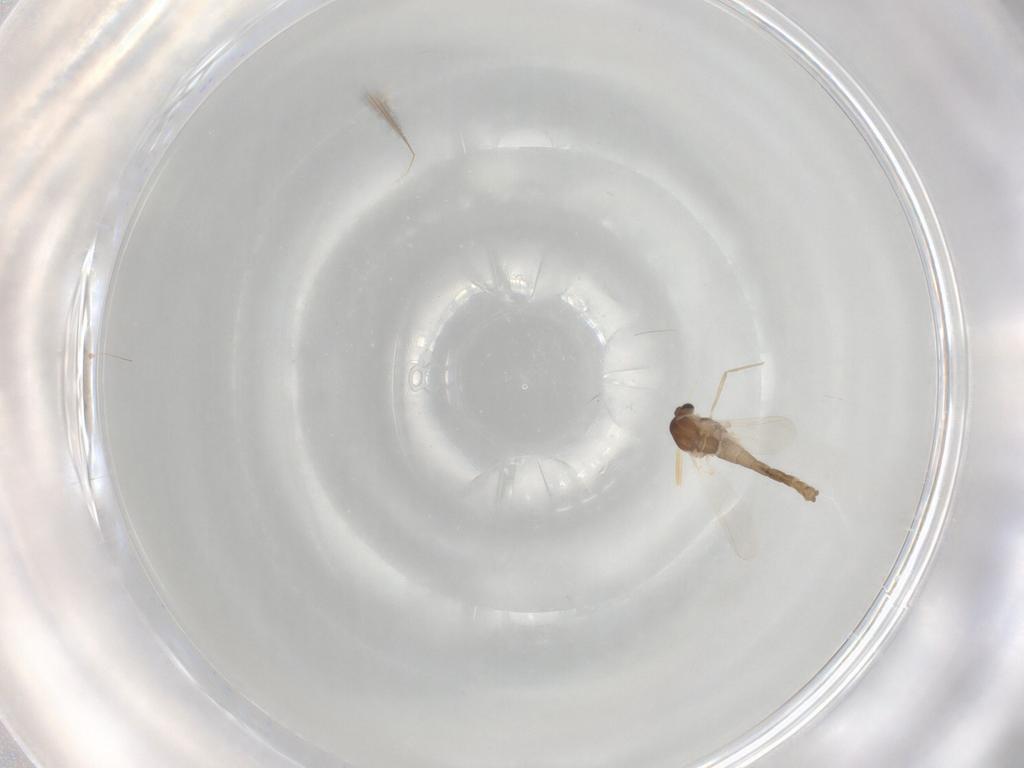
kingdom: Animalia
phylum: Arthropoda
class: Insecta
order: Diptera
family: Chironomidae
